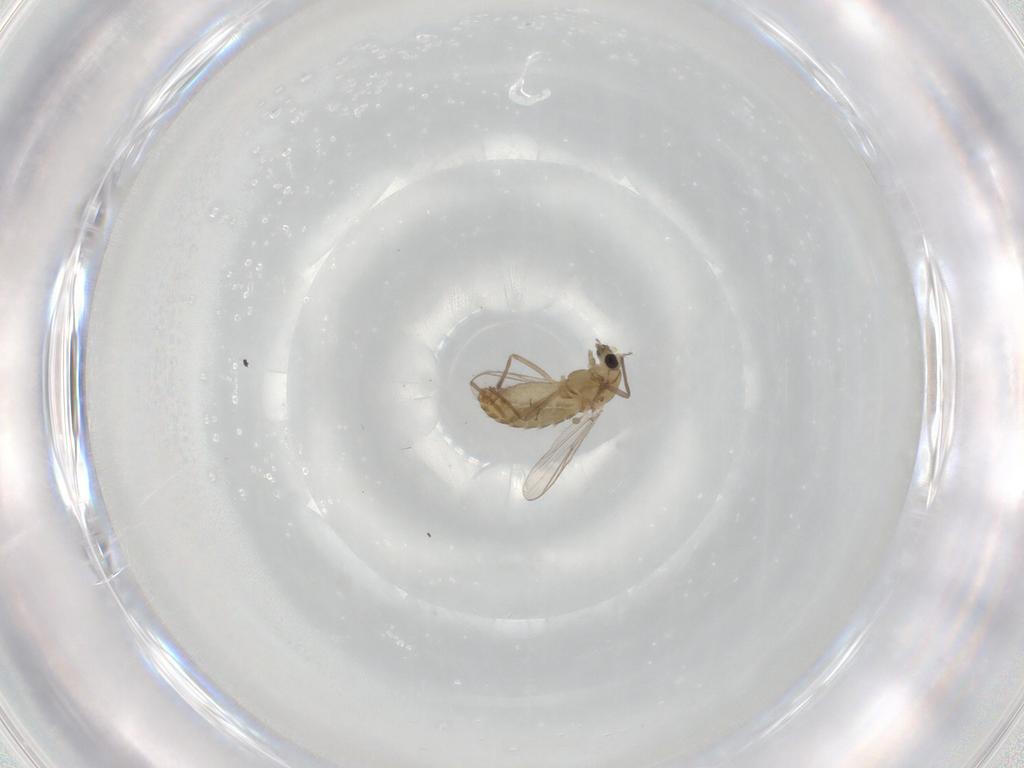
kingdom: Animalia
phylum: Arthropoda
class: Insecta
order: Diptera
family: Chironomidae
